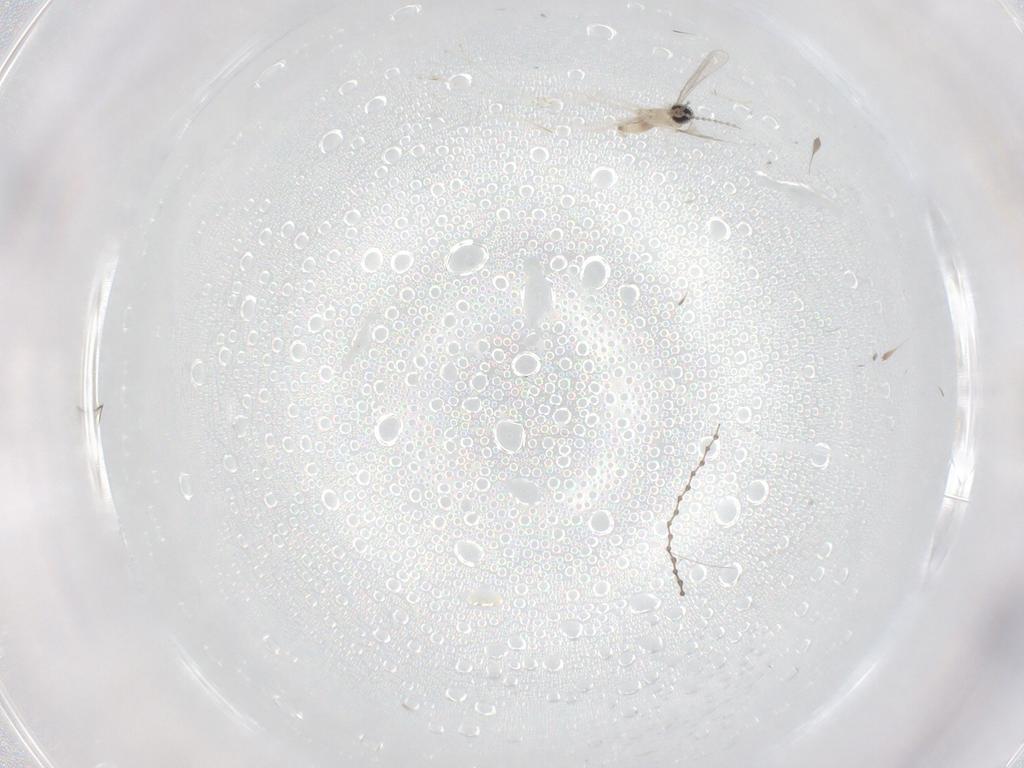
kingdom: Animalia
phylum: Arthropoda
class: Insecta
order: Diptera
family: Cecidomyiidae
